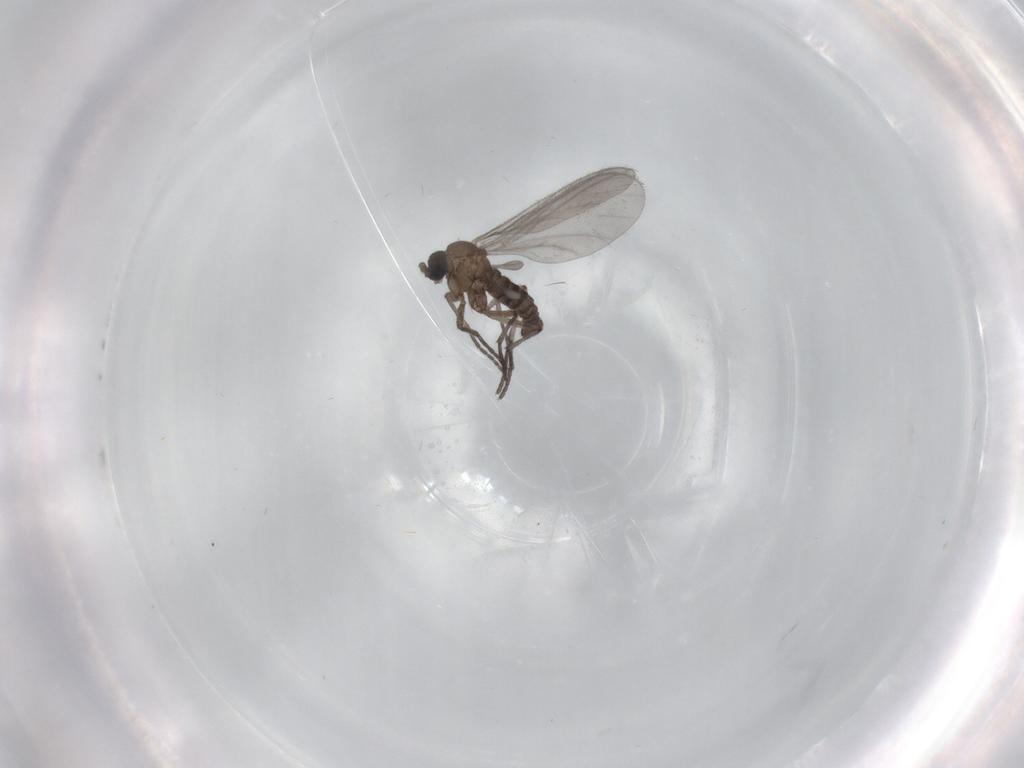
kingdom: Animalia
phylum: Arthropoda
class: Insecta
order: Diptera
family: Sciaridae
